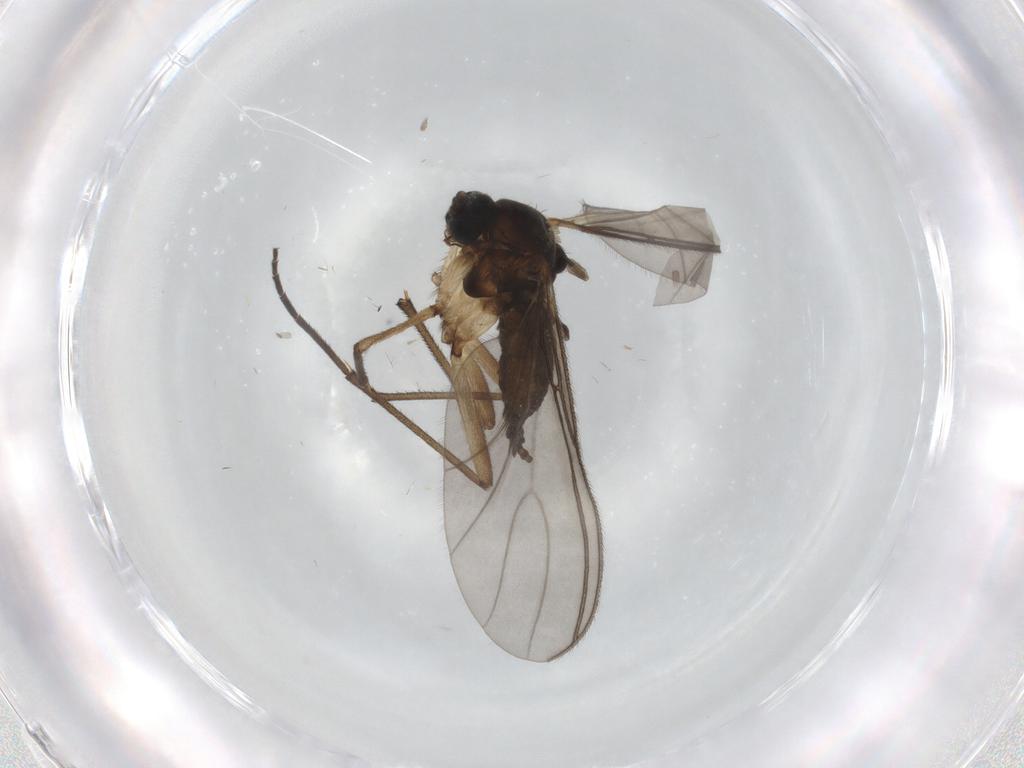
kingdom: Animalia
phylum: Arthropoda
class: Insecta
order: Diptera
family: Sciaridae
